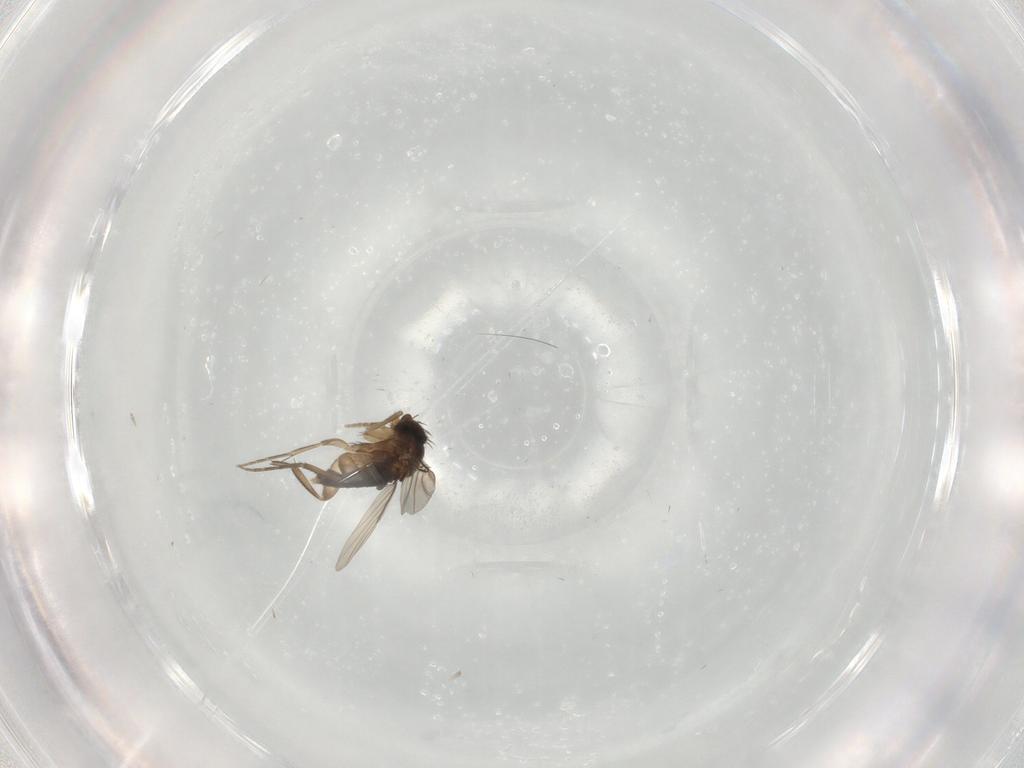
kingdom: Animalia
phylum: Arthropoda
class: Insecta
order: Diptera
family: Phoridae
